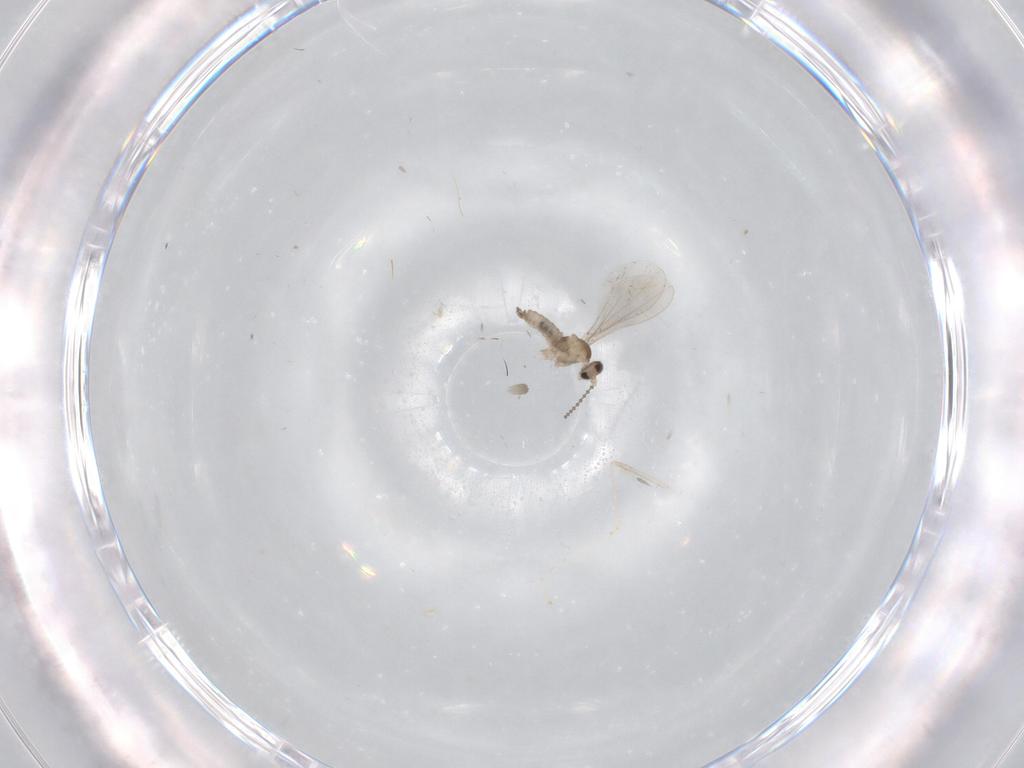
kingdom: Animalia
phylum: Arthropoda
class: Insecta
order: Diptera
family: Cecidomyiidae
